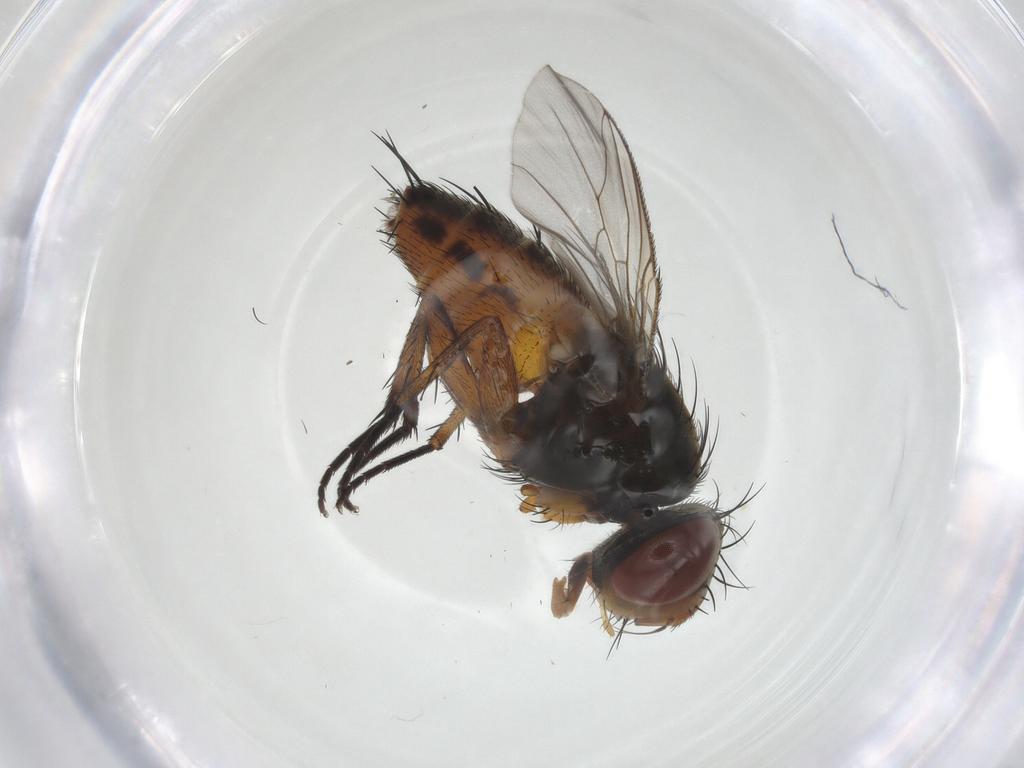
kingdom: Animalia
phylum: Arthropoda
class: Insecta
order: Diptera
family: Sarcophagidae
